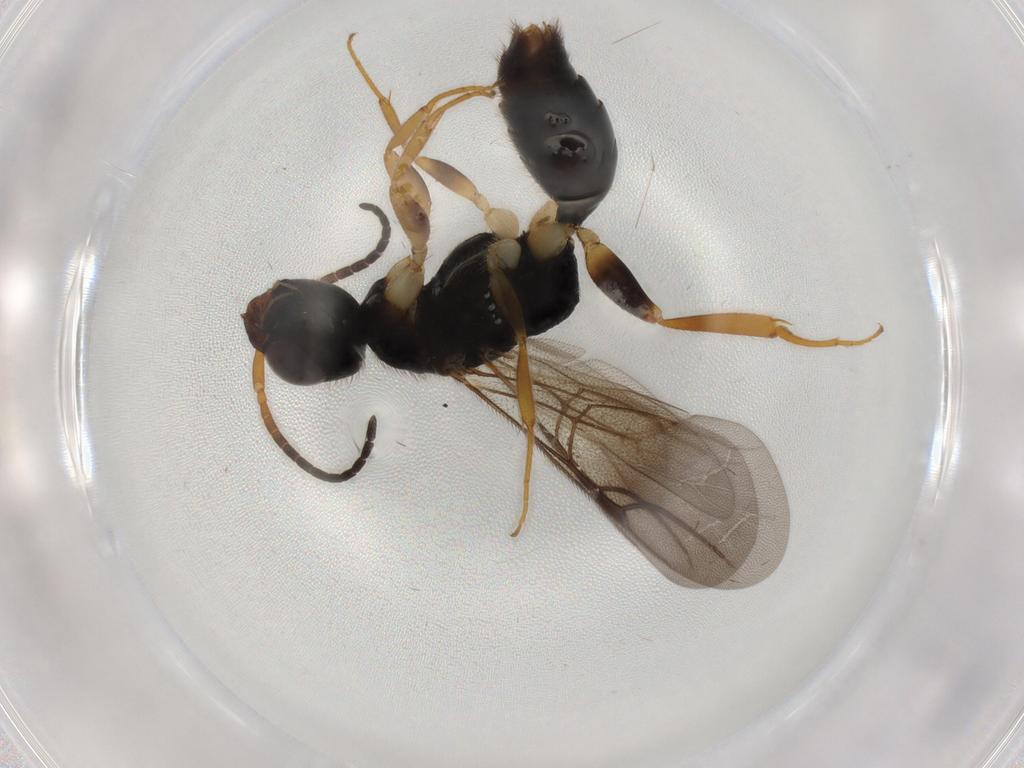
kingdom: Animalia
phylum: Arthropoda
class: Insecta
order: Hymenoptera
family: Bethylidae
